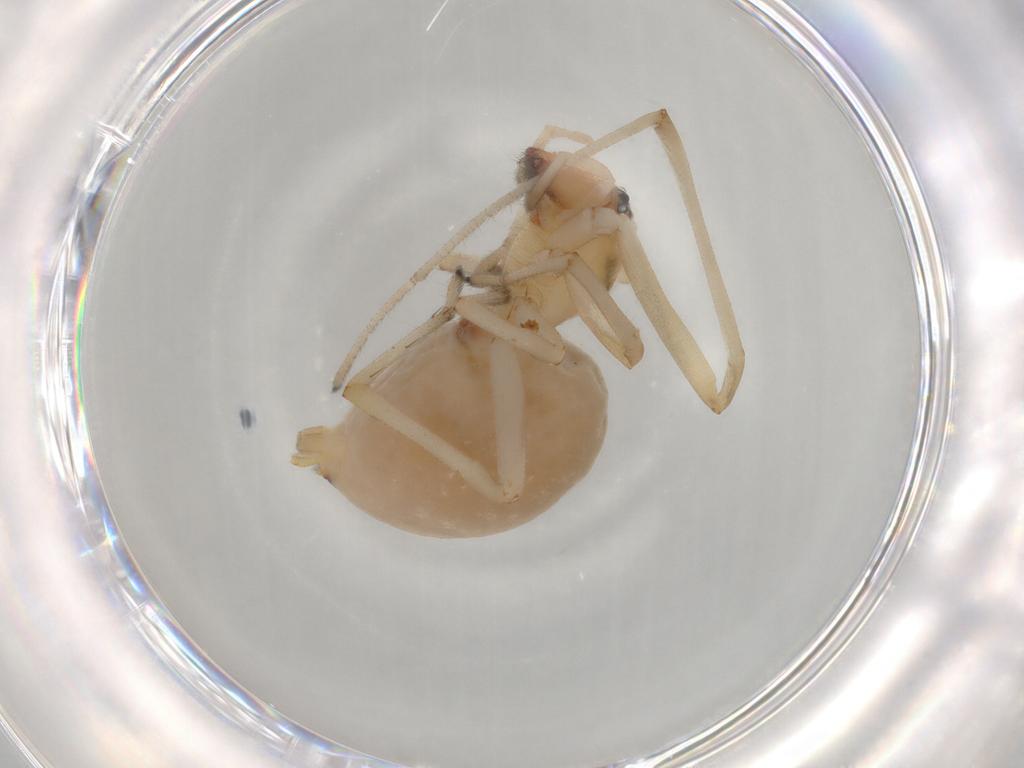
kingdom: Animalia
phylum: Arthropoda
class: Arachnida
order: Araneae
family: Cheiracanthiidae
